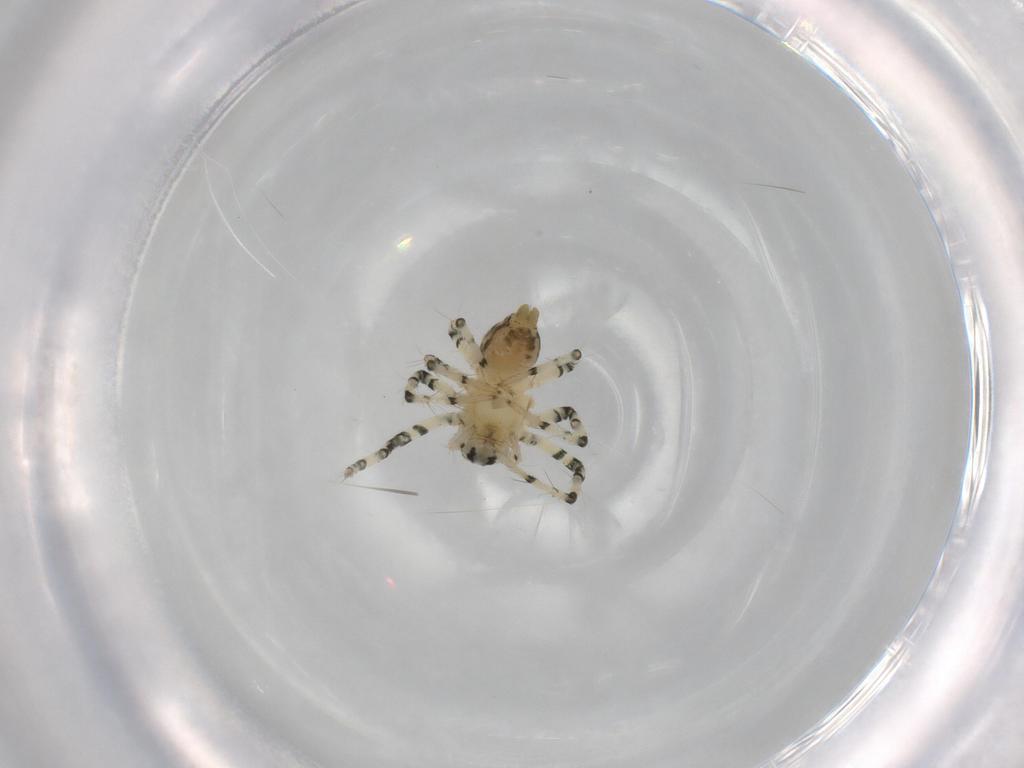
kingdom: Animalia
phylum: Arthropoda
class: Arachnida
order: Araneae
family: Oxyopidae
